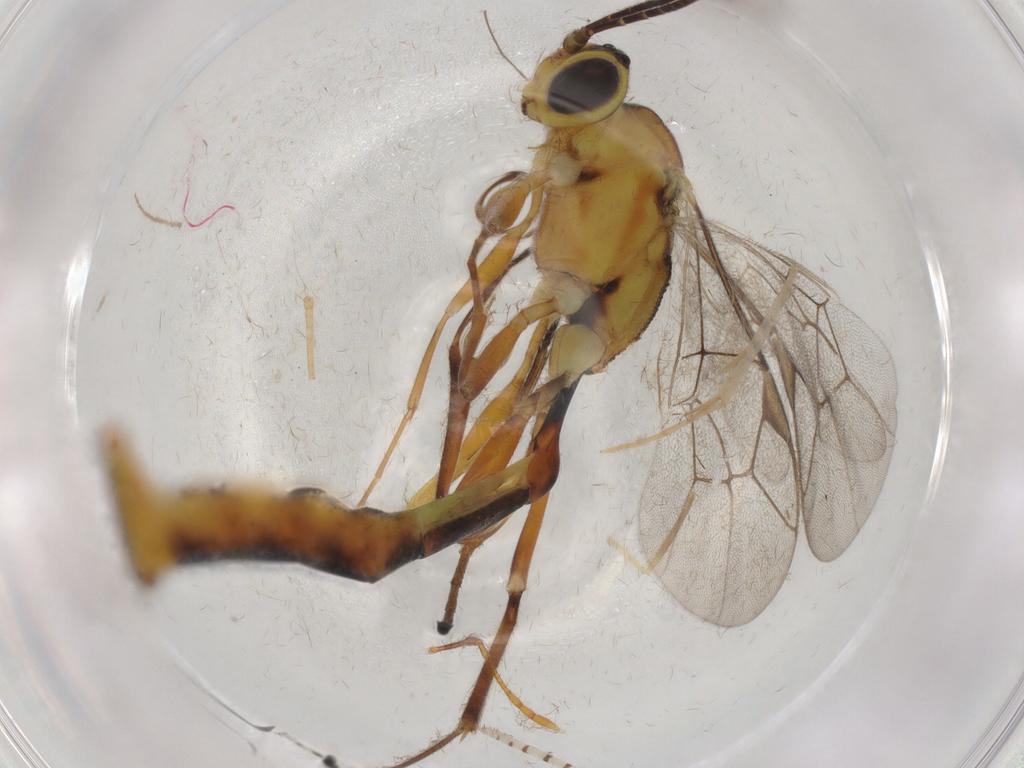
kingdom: Animalia
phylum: Arthropoda
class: Insecta
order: Hymenoptera
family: Ichneumonidae
